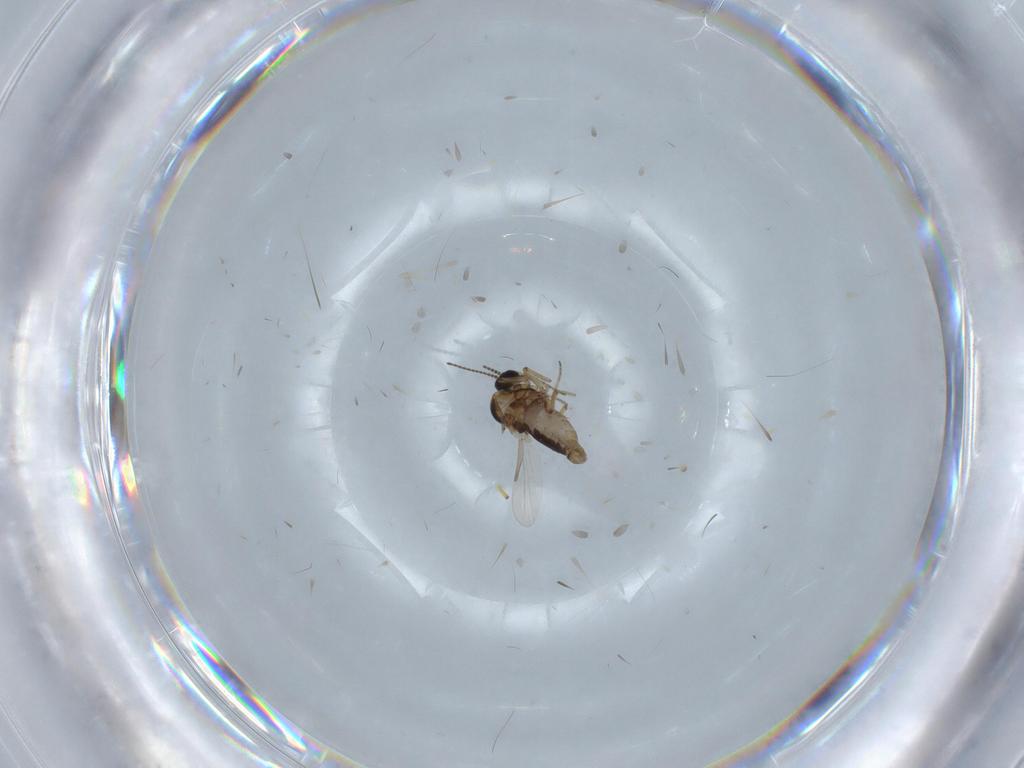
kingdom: Animalia
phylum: Arthropoda
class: Insecta
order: Diptera
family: Ceratopogonidae
